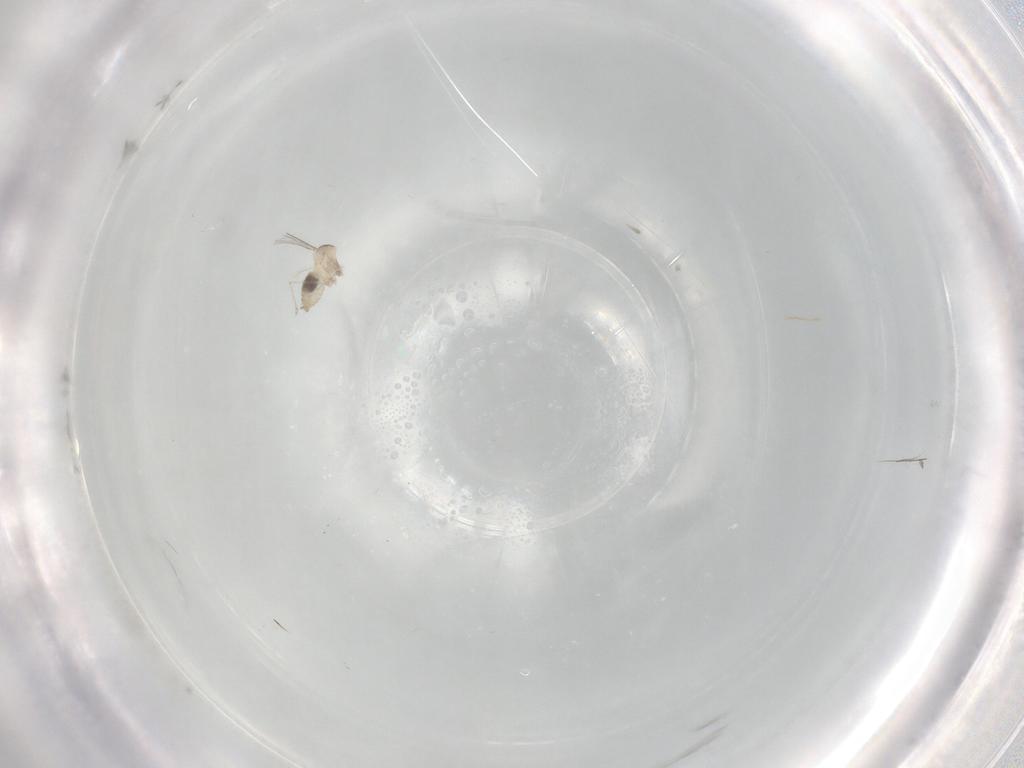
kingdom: Animalia
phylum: Arthropoda
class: Insecta
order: Diptera
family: Cecidomyiidae
